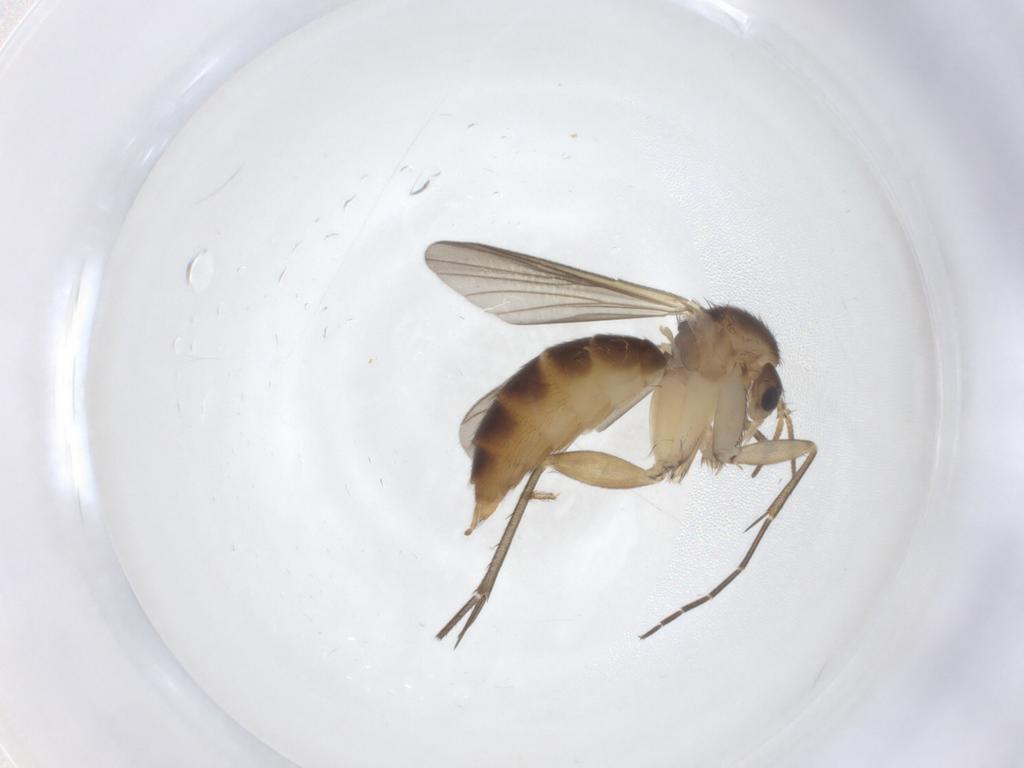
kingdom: Animalia
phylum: Arthropoda
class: Insecta
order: Diptera
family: Mycetophilidae
